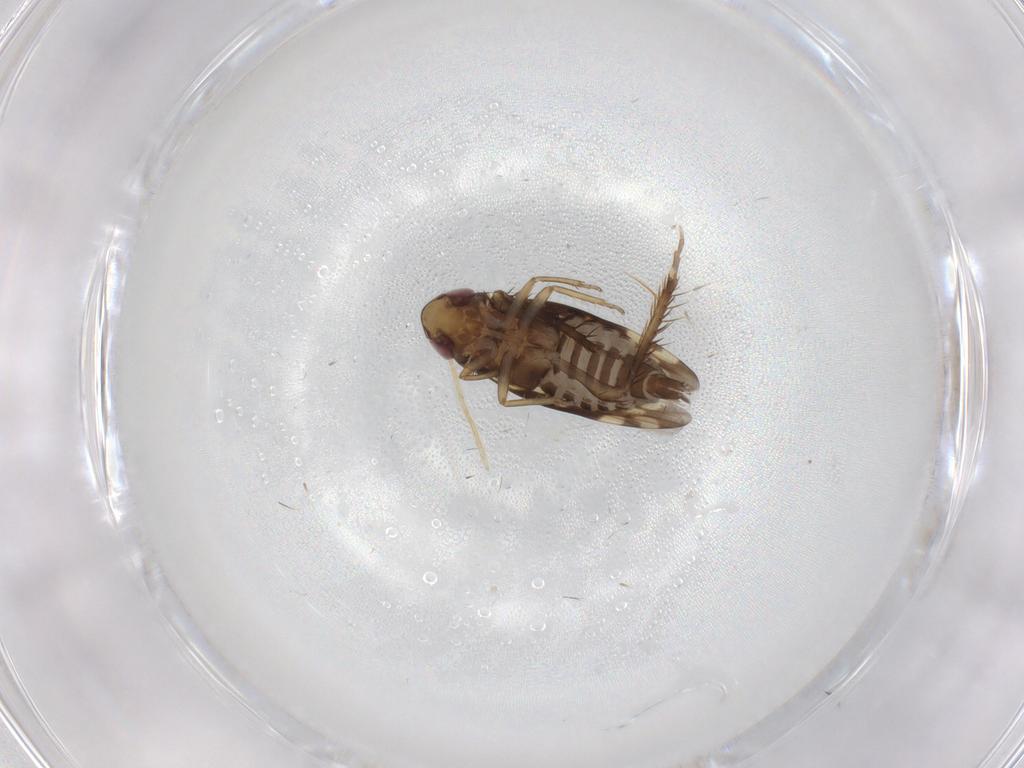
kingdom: Animalia
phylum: Arthropoda
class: Insecta
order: Hemiptera
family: Cicadellidae
